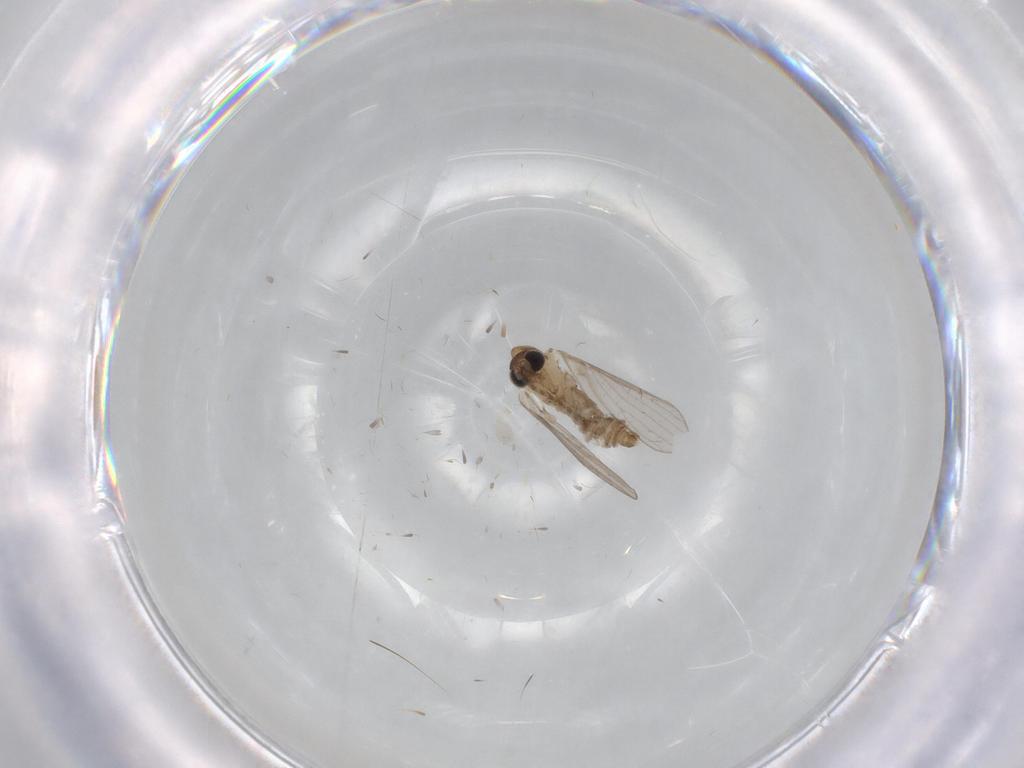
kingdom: Animalia
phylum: Arthropoda
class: Insecta
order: Diptera
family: Psychodidae
